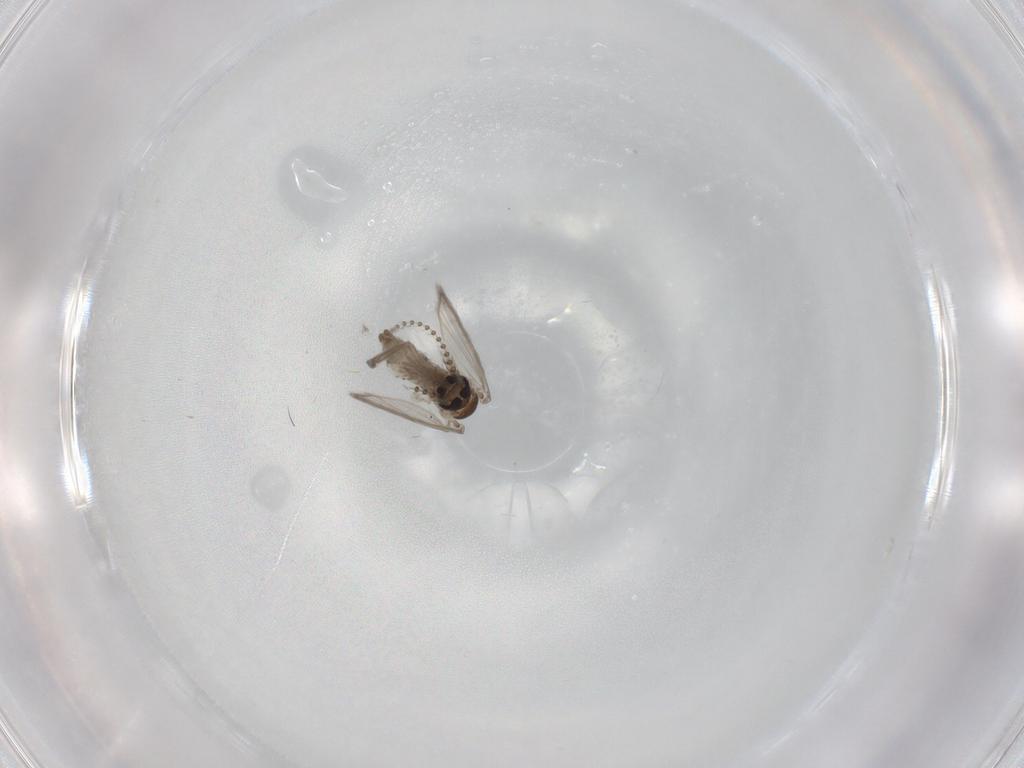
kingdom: Animalia
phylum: Arthropoda
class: Insecta
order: Diptera
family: Psychodidae
